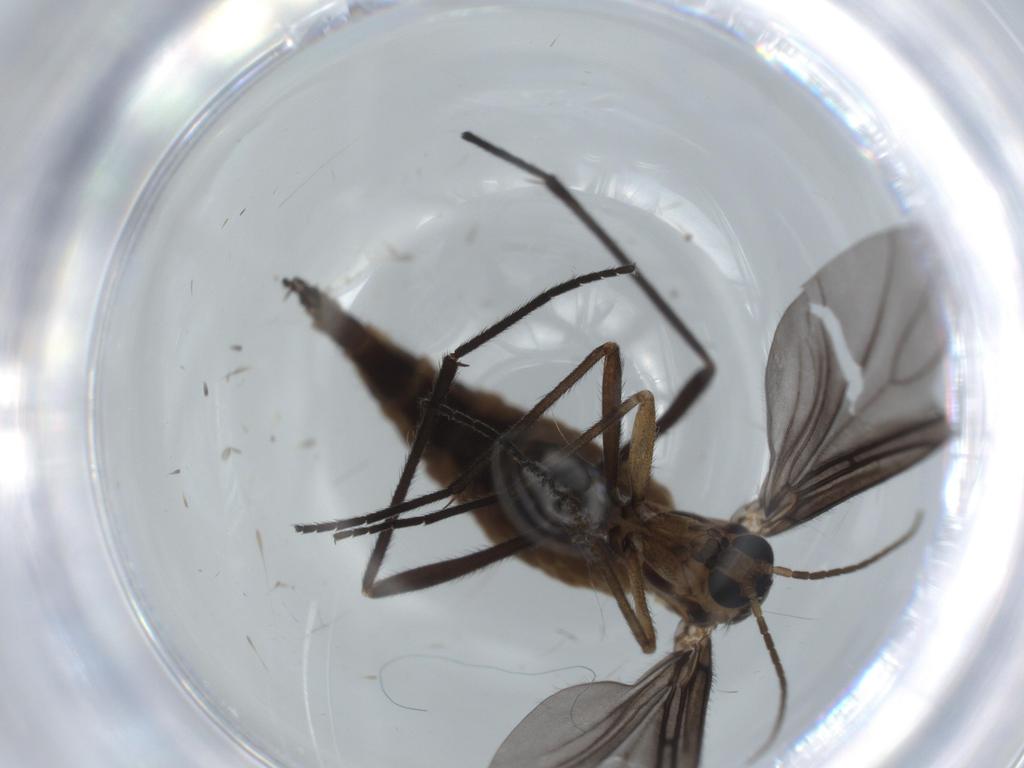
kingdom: Animalia
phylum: Arthropoda
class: Insecta
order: Diptera
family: Sciaridae
